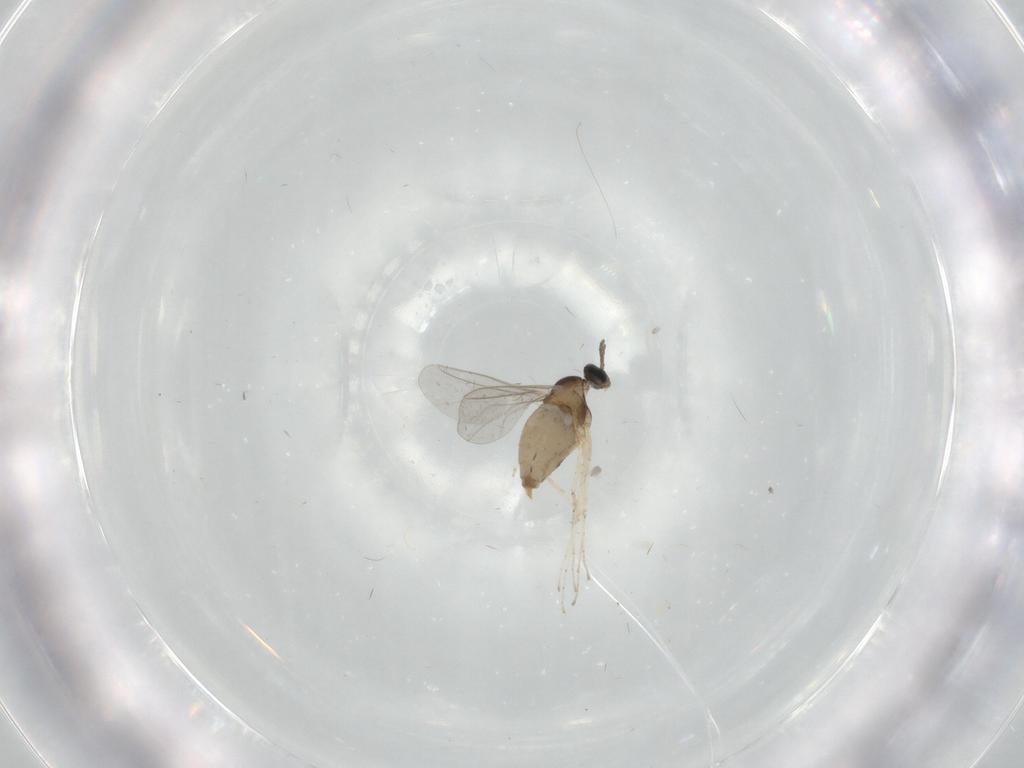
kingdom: Animalia
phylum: Arthropoda
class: Insecta
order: Diptera
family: Cecidomyiidae
